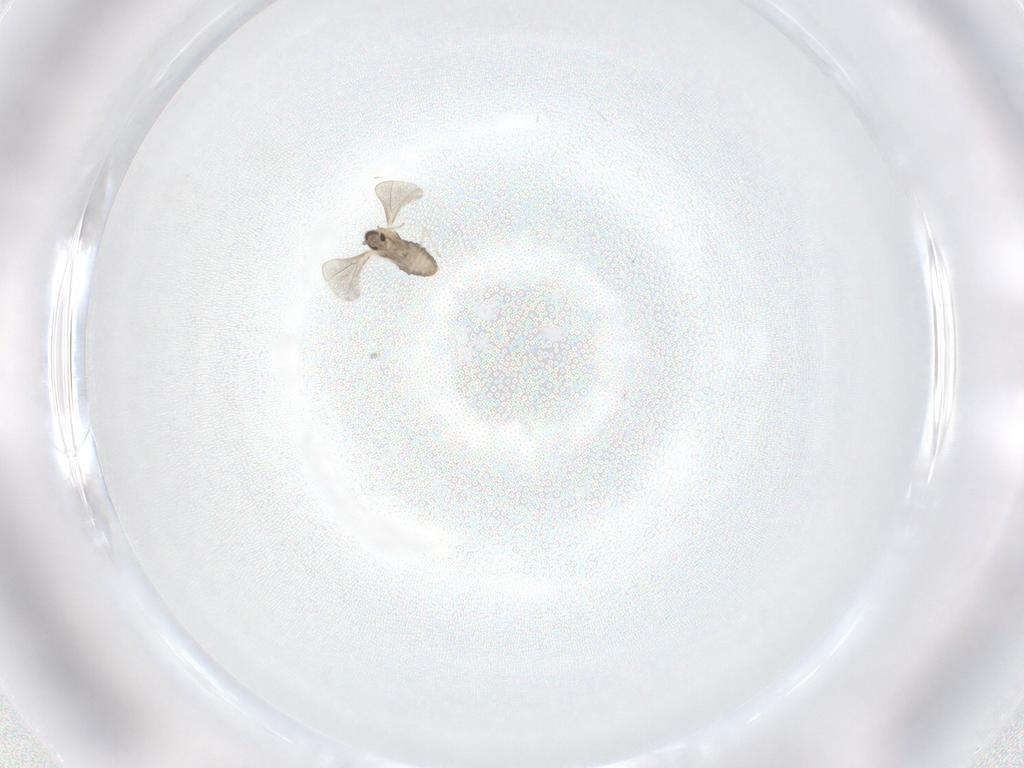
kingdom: Animalia
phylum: Arthropoda
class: Insecta
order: Diptera
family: Cecidomyiidae
